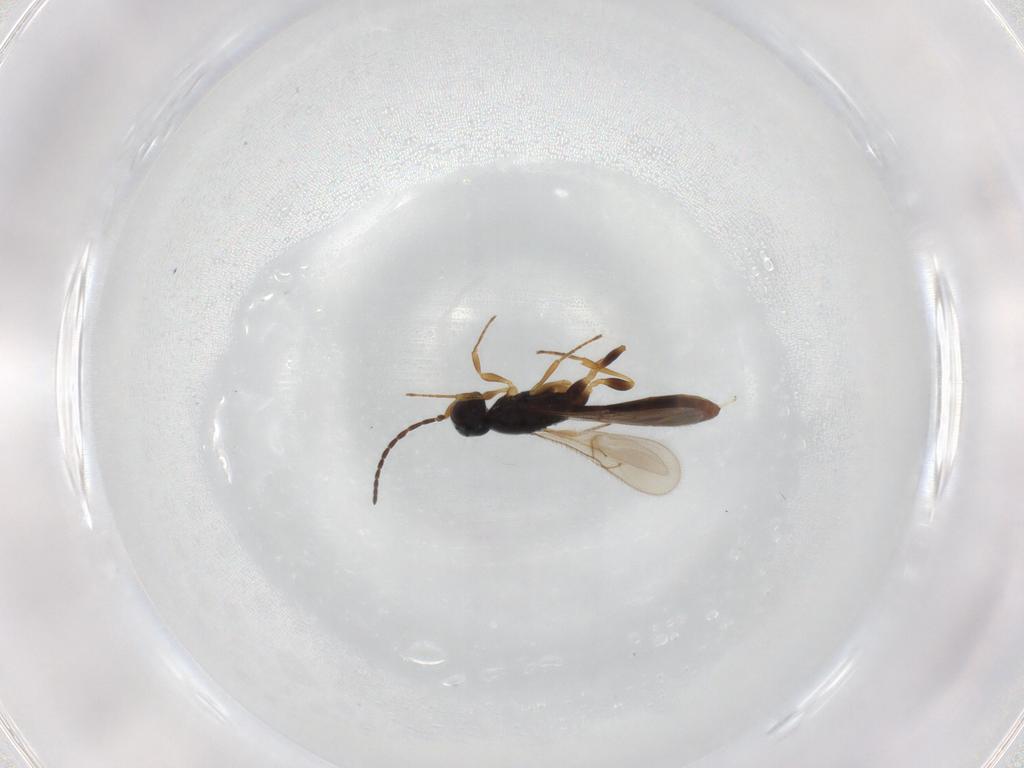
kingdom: Animalia
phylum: Arthropoda
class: Insecta
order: Hymenoptera
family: Scelionidae
